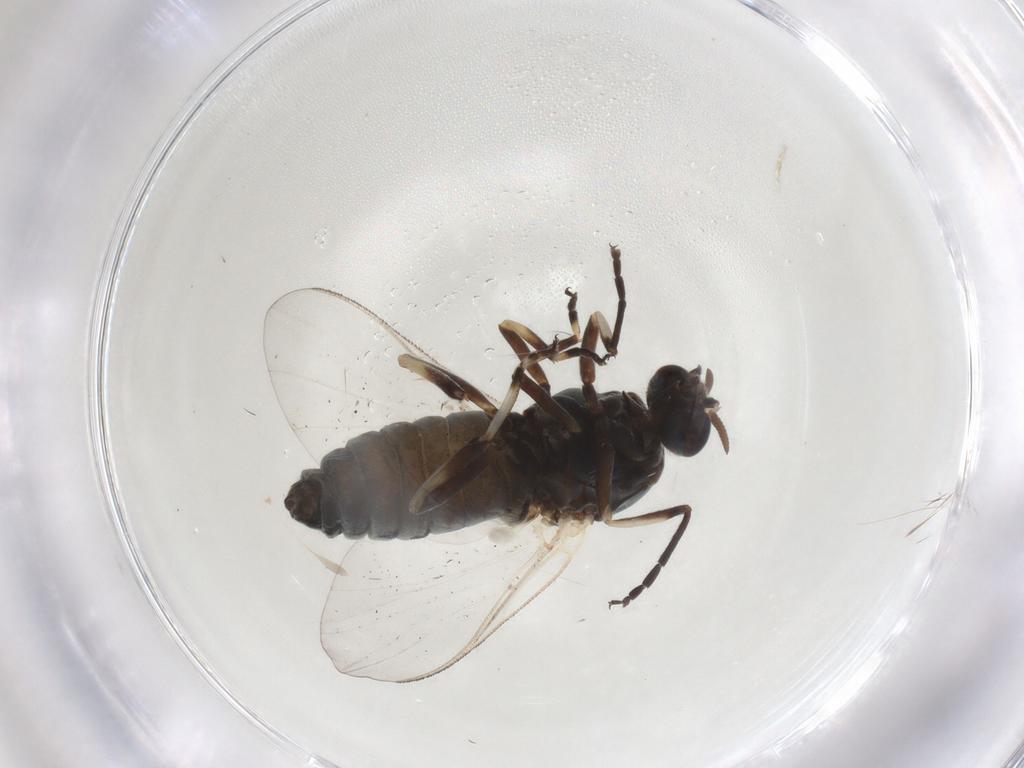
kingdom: Animalia
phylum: Arthropoda
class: Insecta
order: Diptera
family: Simuliidae
